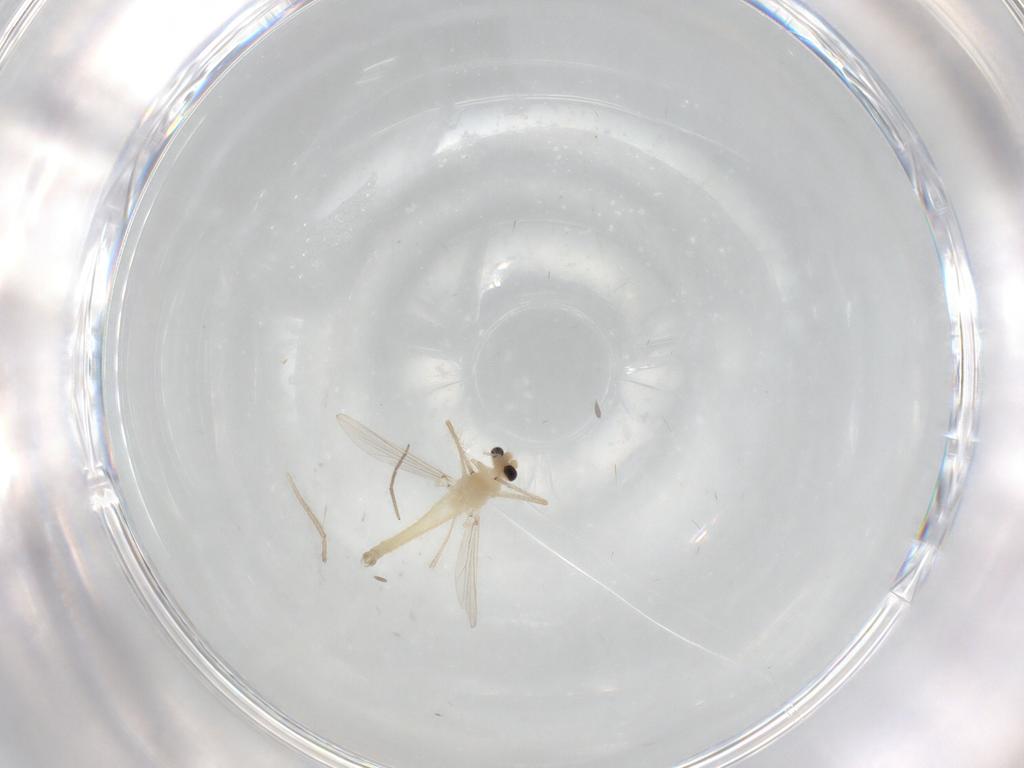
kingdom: Animalia
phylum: Arthropoda
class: Insecta
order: Diptera
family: Chironomidae
